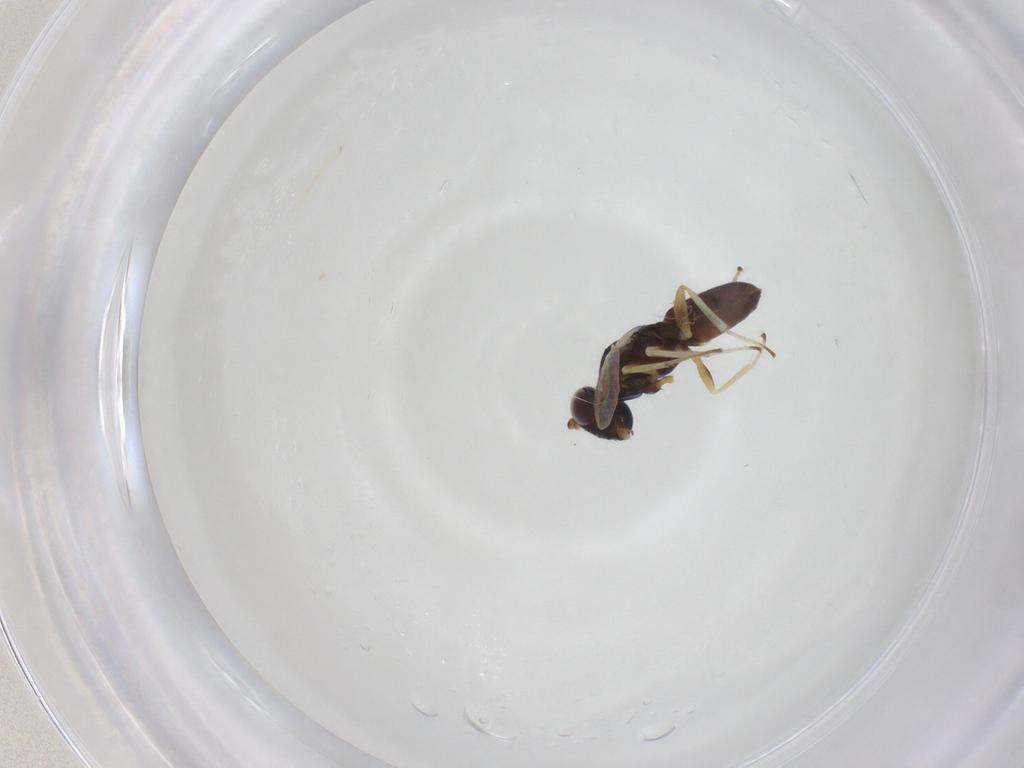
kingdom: Animalia
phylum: Arthropoda
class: Insecta
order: Hymenoptera
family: Eupelmidae
